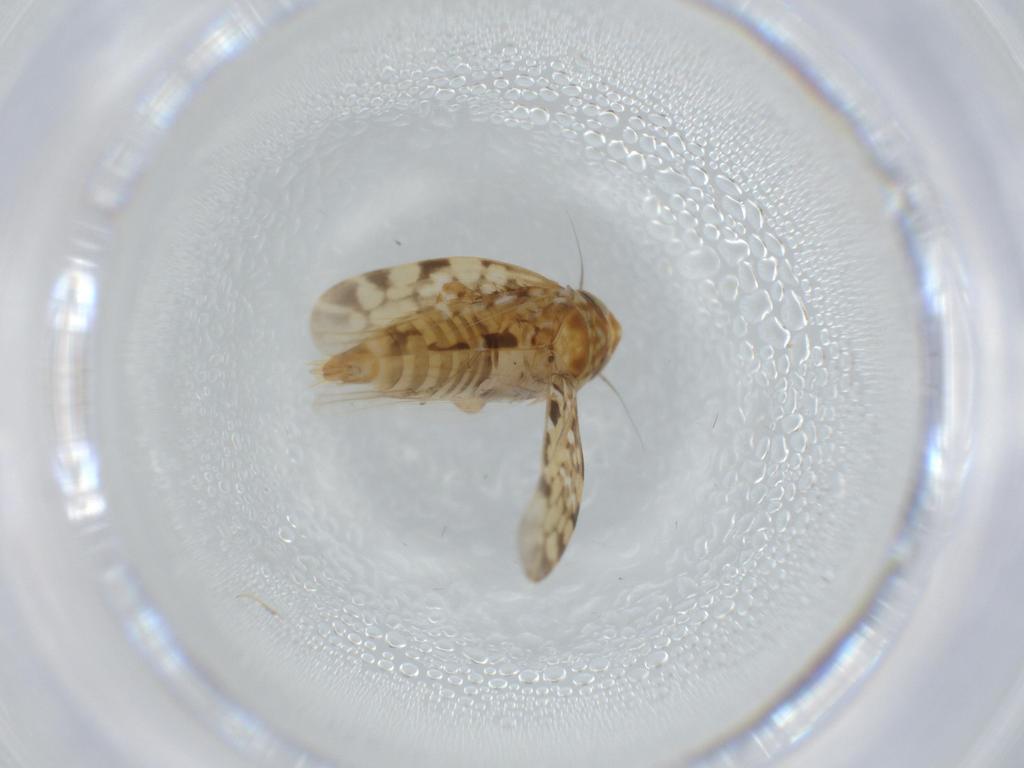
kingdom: Animalia
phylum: Arthropoda
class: Insecta
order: Hemiptera
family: Cicadellidae
